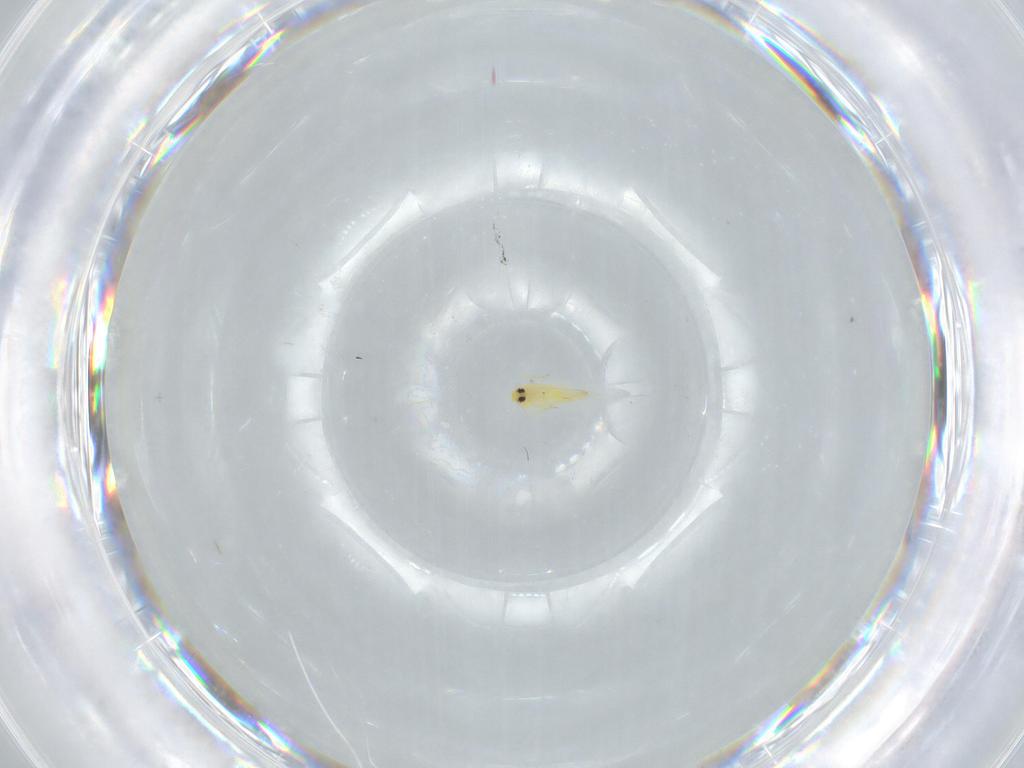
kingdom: Animalia
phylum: Arthropoda
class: Insecta
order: Hemiptera
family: Aleyrodidae
